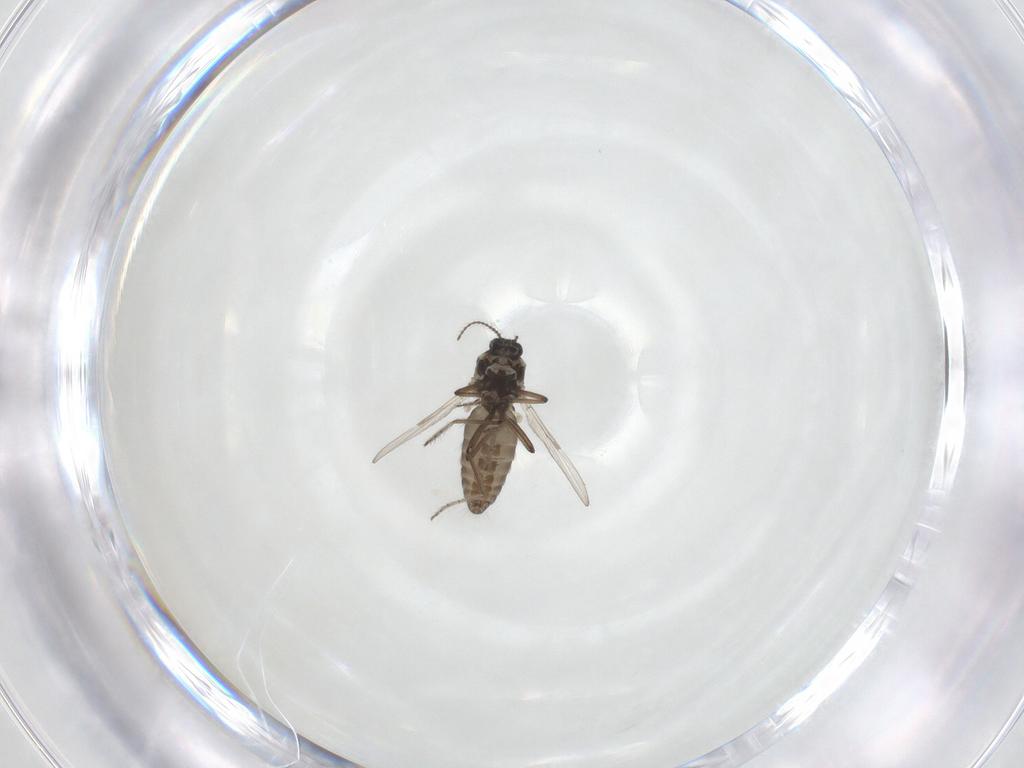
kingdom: Animalia
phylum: Arthropoda
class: Insecta
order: Diptera
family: Ceratopogonidae
